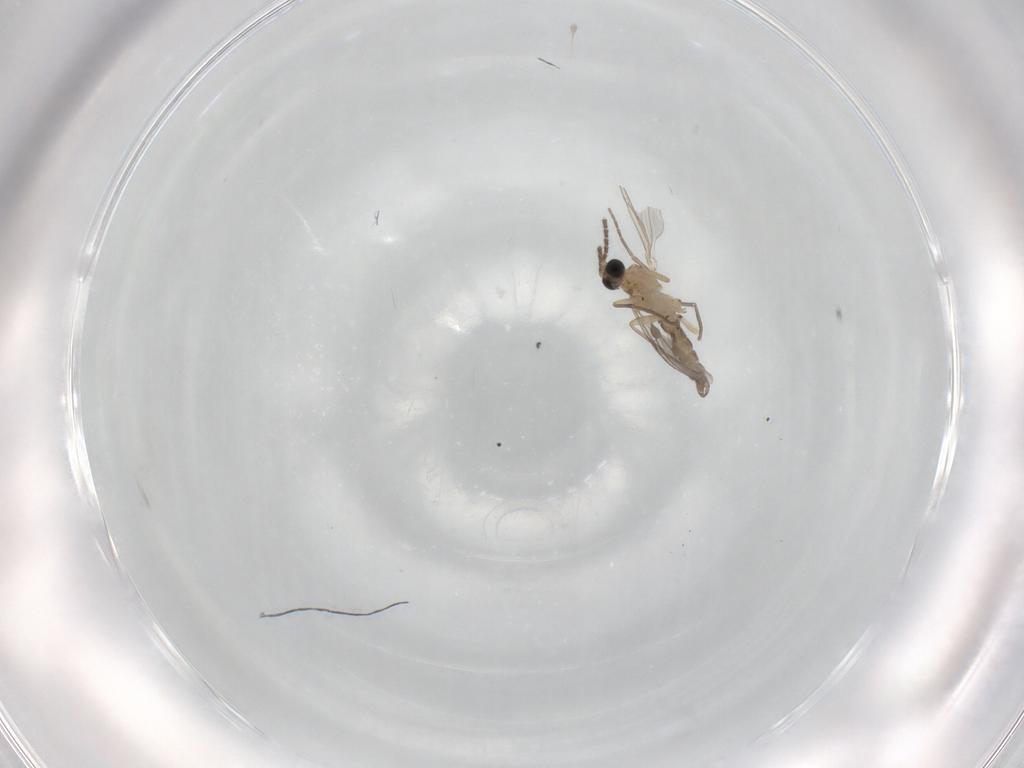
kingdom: Animalia
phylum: Arthropoda
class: Insecta
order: Diptera
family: Sciaridae
